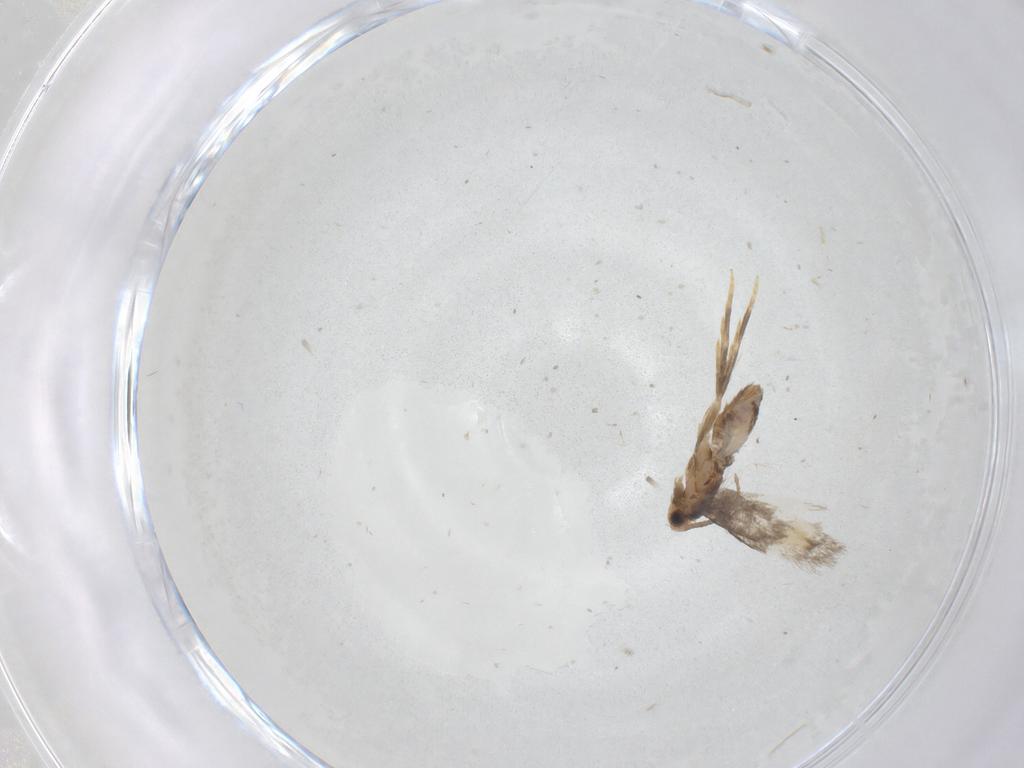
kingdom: Animalia
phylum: Arthropoda
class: Insecta
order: Lepidoptera
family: Nepticulidae
